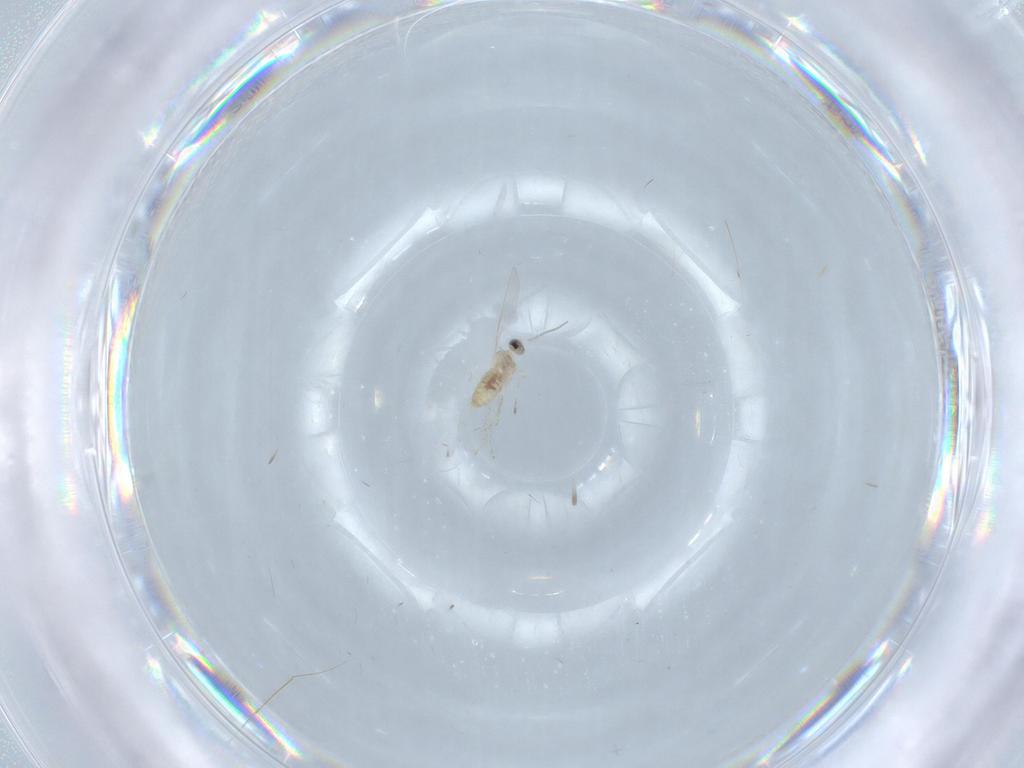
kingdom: Animalia
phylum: Arthropoda
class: Insecta
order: Diptera
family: Cecidomyiidae
